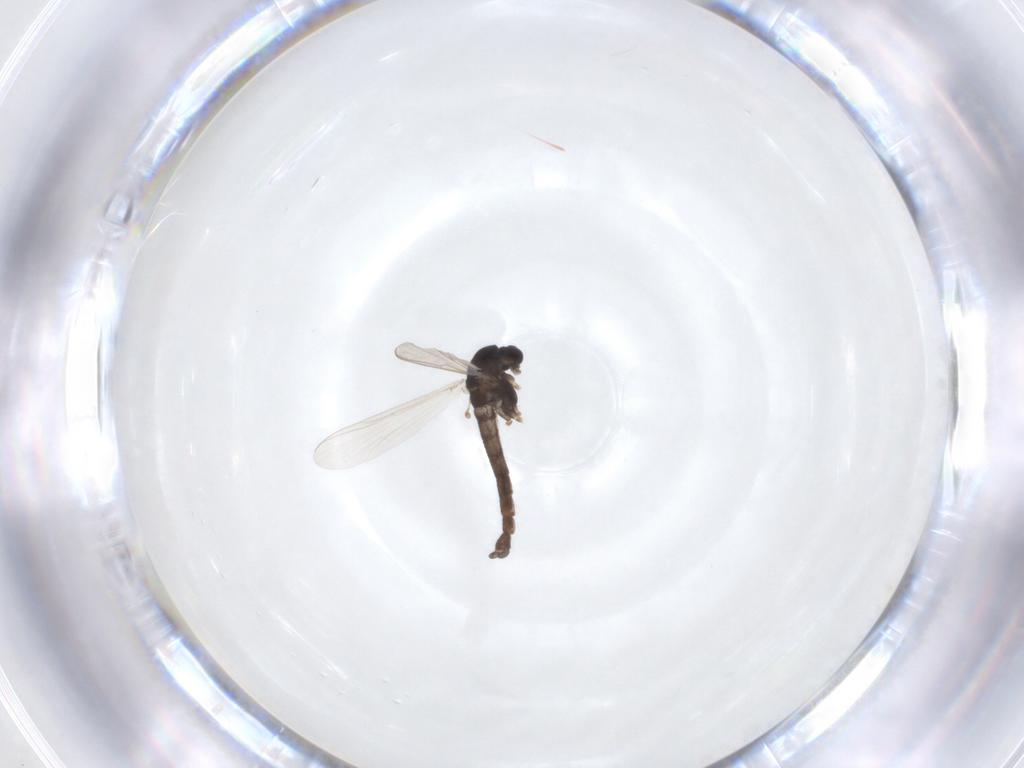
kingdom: Animalia
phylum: Arthropoda
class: Insecta
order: Diptera
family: Chironomidae
